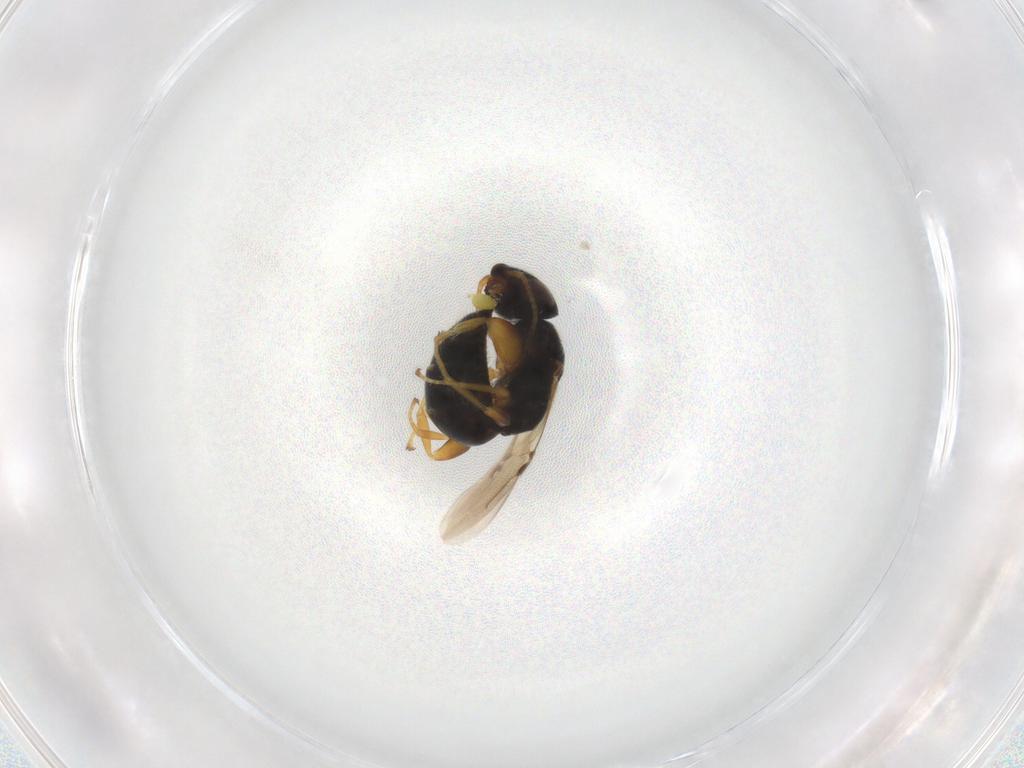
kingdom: Animalia
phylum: Arthropoda
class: Insecta
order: Hymenoptera
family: Bethylidae
